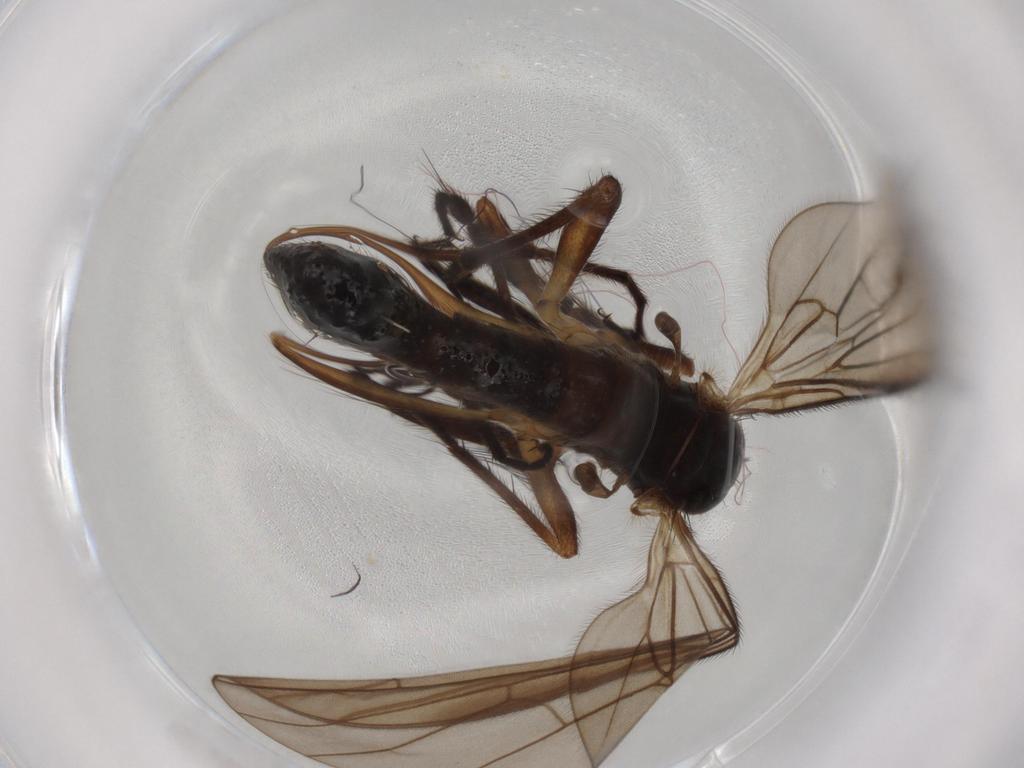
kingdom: Animalia
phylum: Arthropoda
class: Insecta
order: Diptera
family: Empididae
